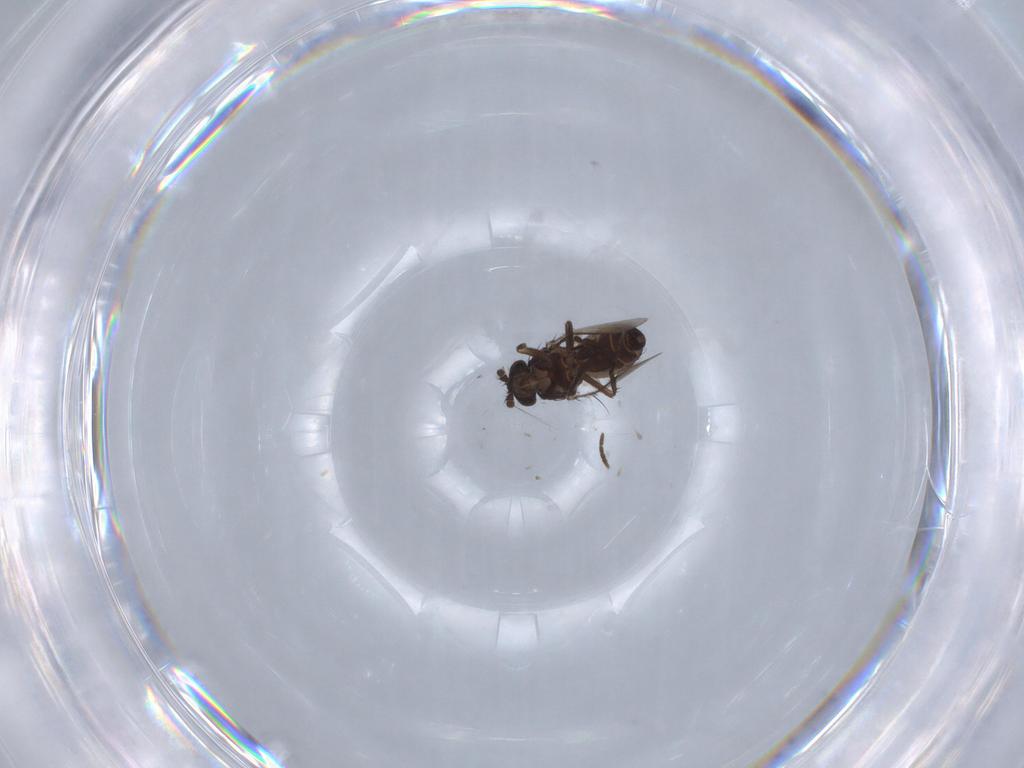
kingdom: Animalia
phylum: Arthropoda
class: Insecta
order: Diptera
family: Sphaeroceridae
